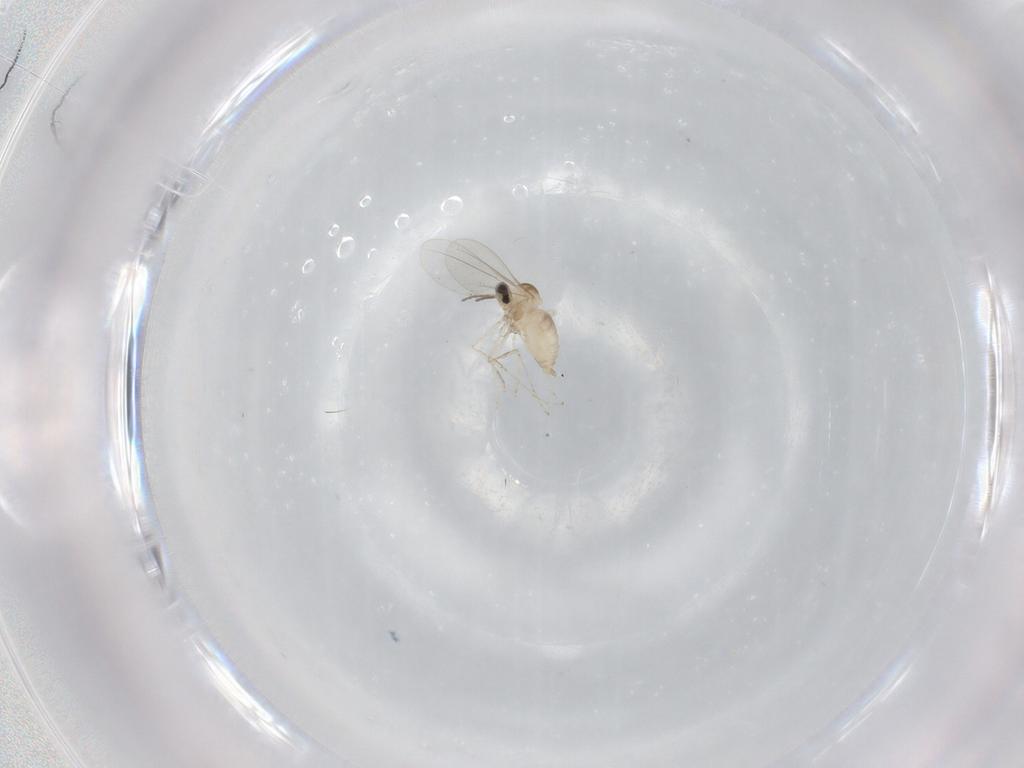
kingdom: Animalia
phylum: Arthropoda
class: Insecta
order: Diptera
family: Cecidomyiidae
